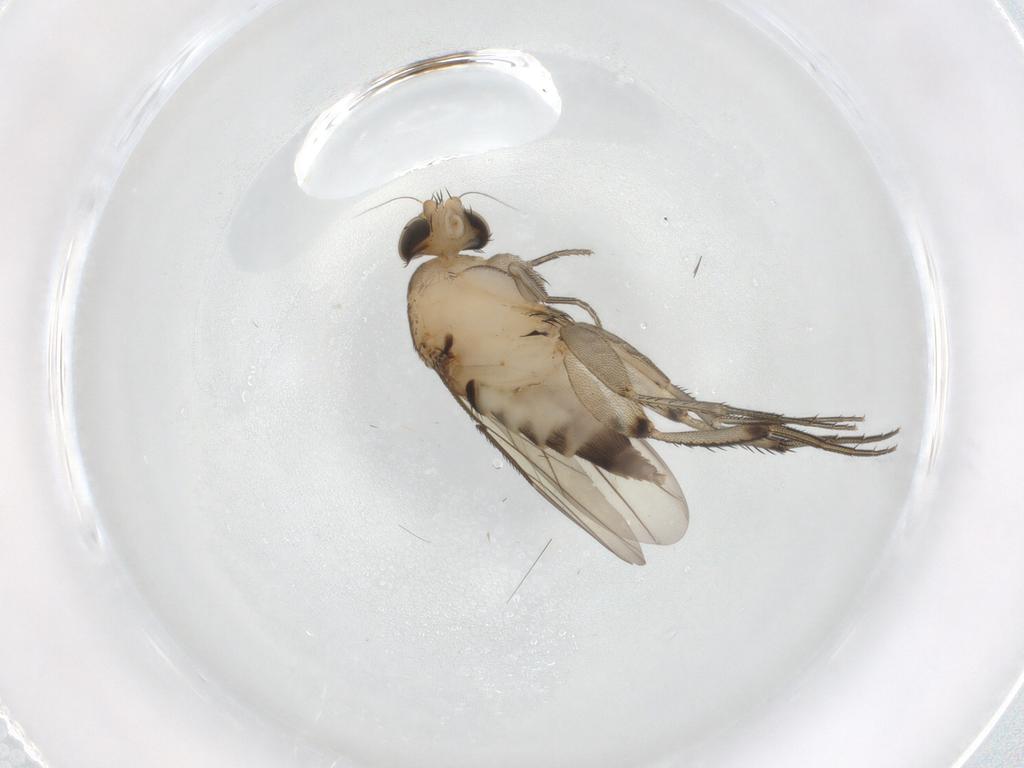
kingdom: Animalia
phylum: Arthropoda
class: Insecta
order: Diptera
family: Phoridae
